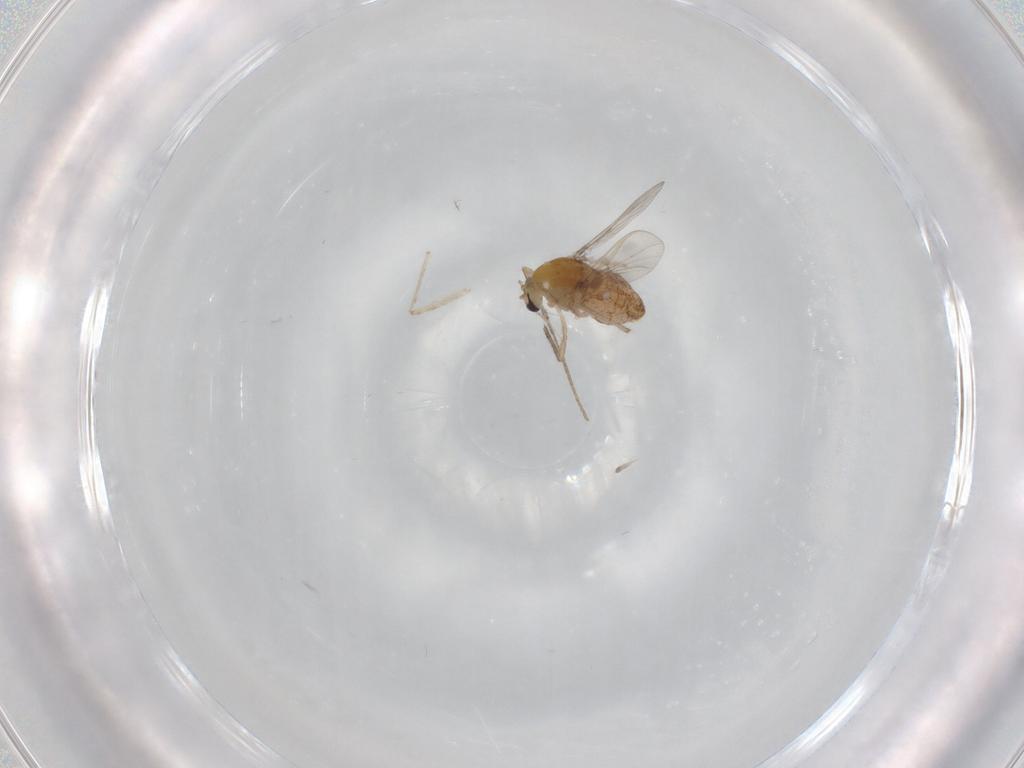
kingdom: Animalia
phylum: Arthropoda
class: Insecta
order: Diptera
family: Chironomidae
